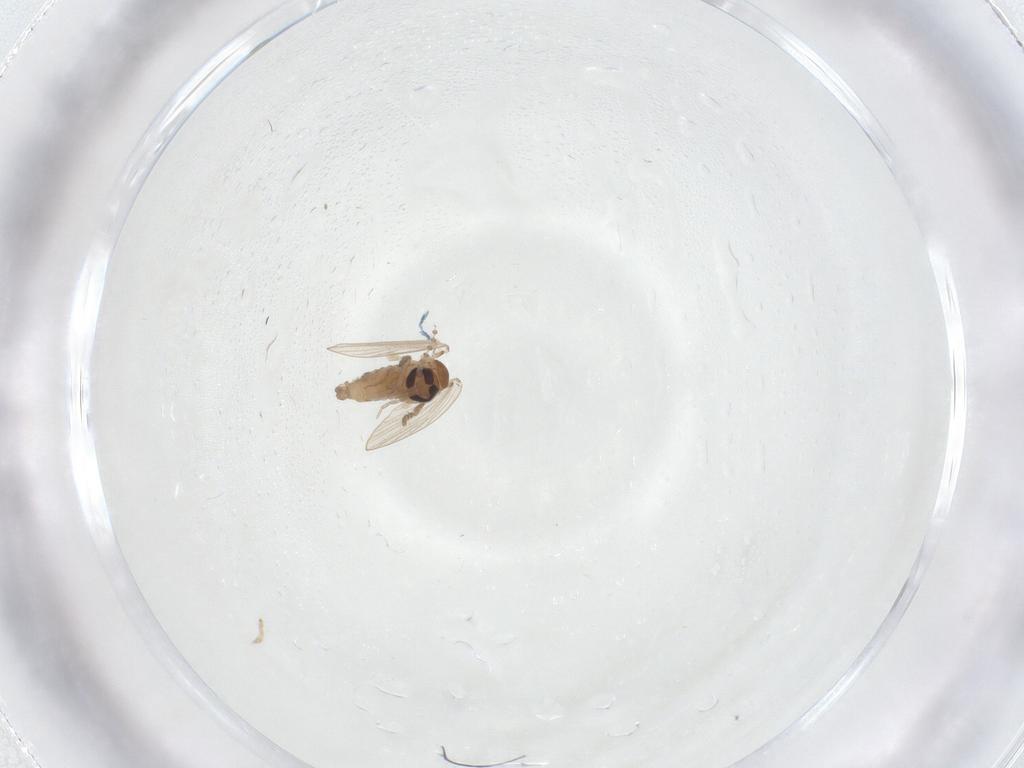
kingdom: Animalia
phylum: Arthropoda
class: Insecta
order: Diptera
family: Psychodidae
